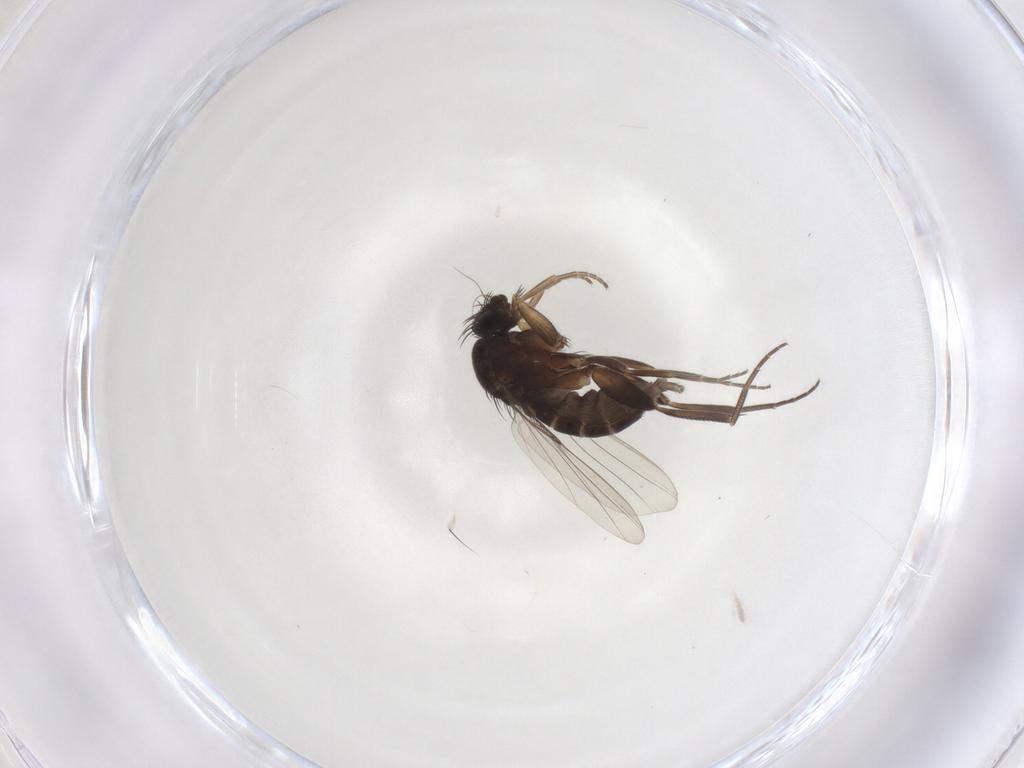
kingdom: Animalia
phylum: Arthropoda
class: Insecta
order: Diptera
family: Phoridae
